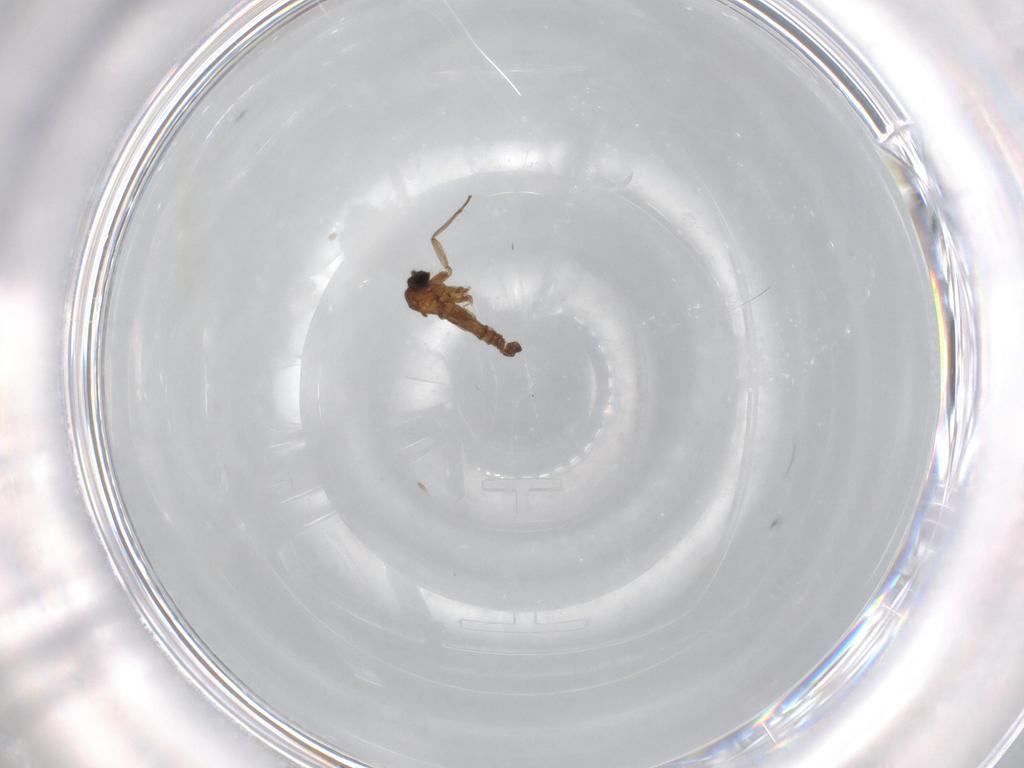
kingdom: Animalia
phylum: Arthropoda
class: Insecta
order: Diptera
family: Sciaridae
